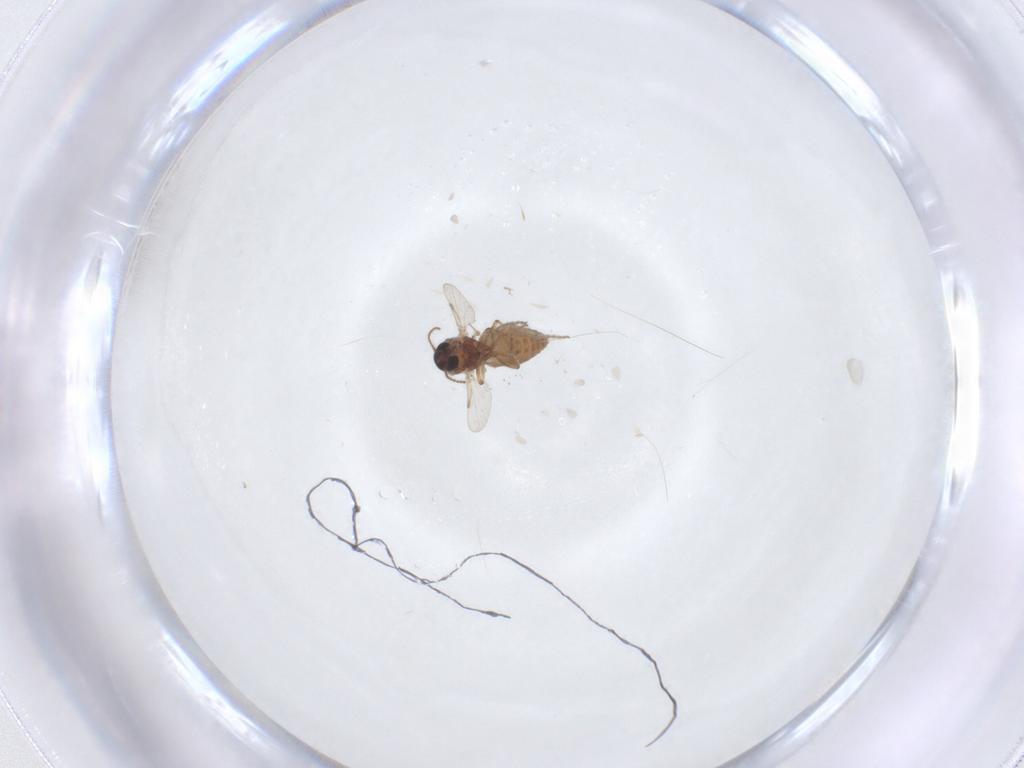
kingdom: Animalia
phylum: Arthropoda
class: Insecta
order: Diptera
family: Ceratopogonidae
